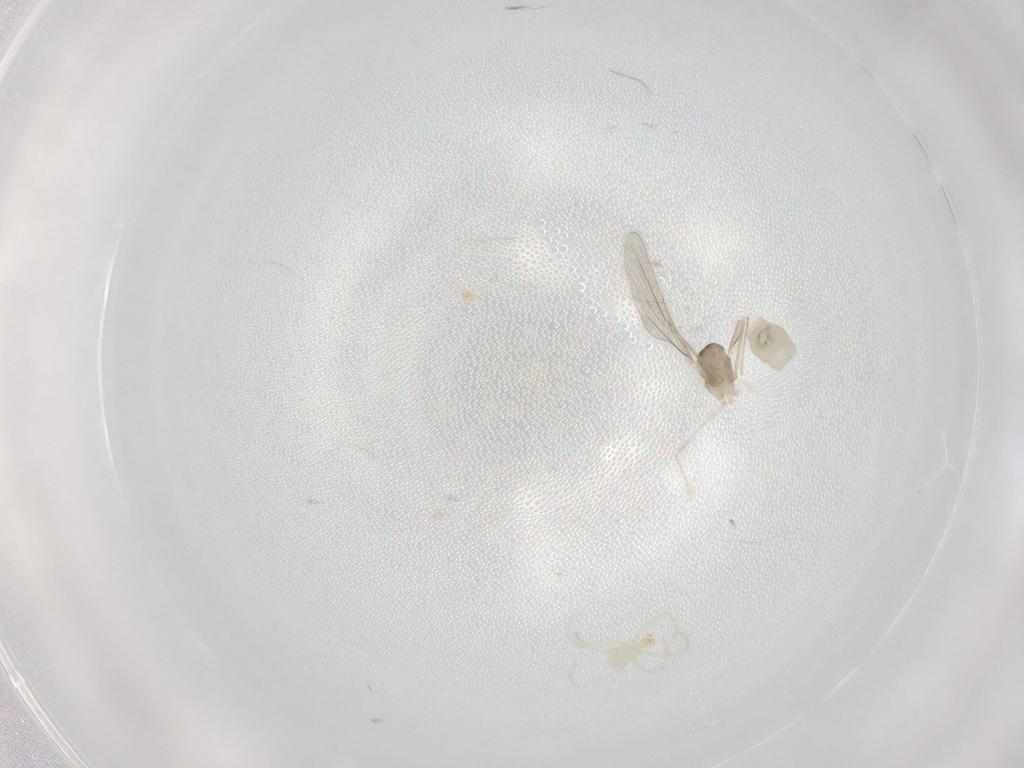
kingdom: Animalia
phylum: Arthropoda
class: Insecta
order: Diptera
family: Cecidomyiidae
